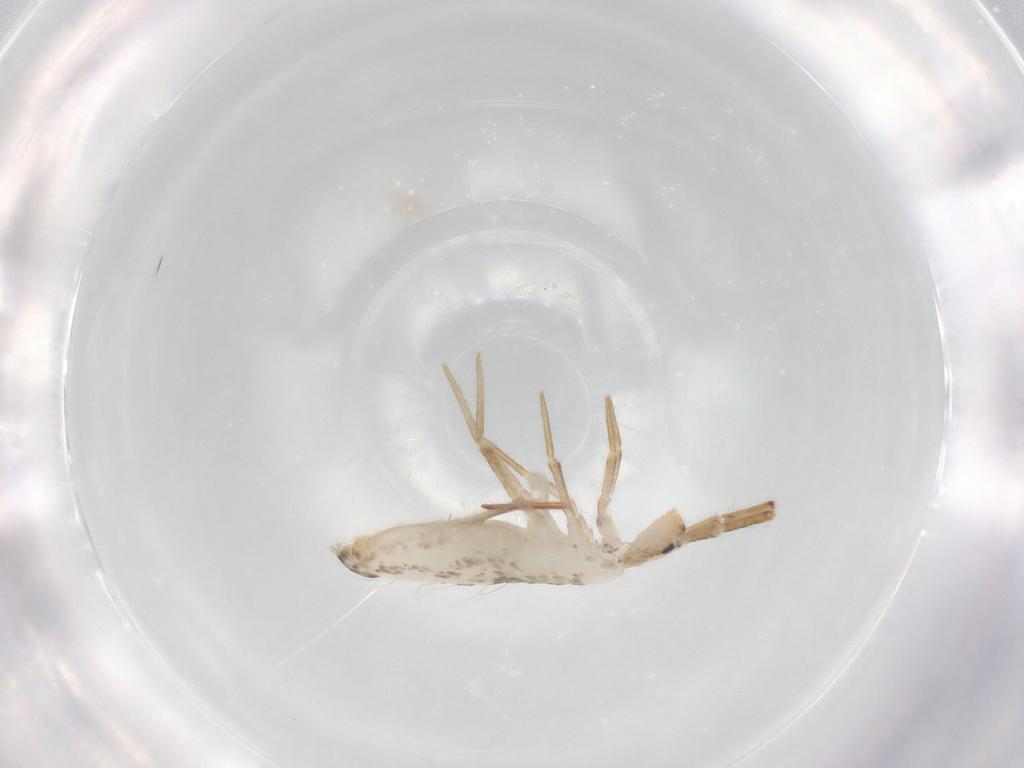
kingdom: Animalia
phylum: Arthropoda
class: Collembola
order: Entomobryomorpha
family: Entomobryidae
